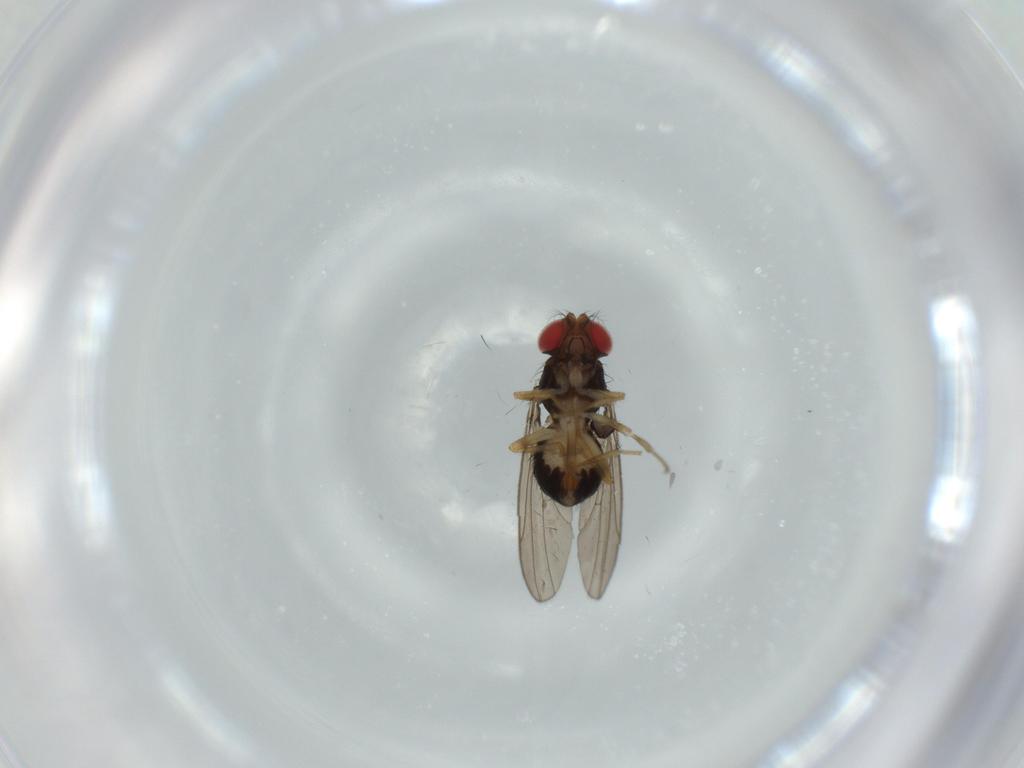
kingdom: Animalia
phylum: Arthropoda
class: Insecta
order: Diptera
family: Drosophilidae
